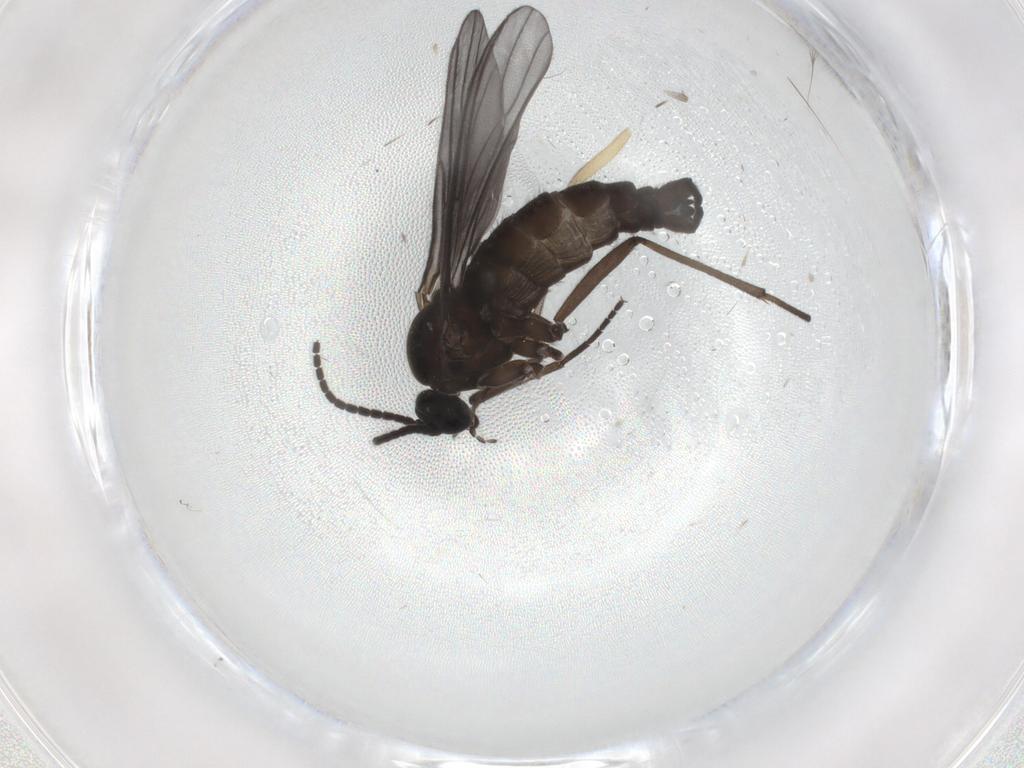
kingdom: Animalia
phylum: Arthropoda
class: Insecta
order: Diptera
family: Sciaridae
